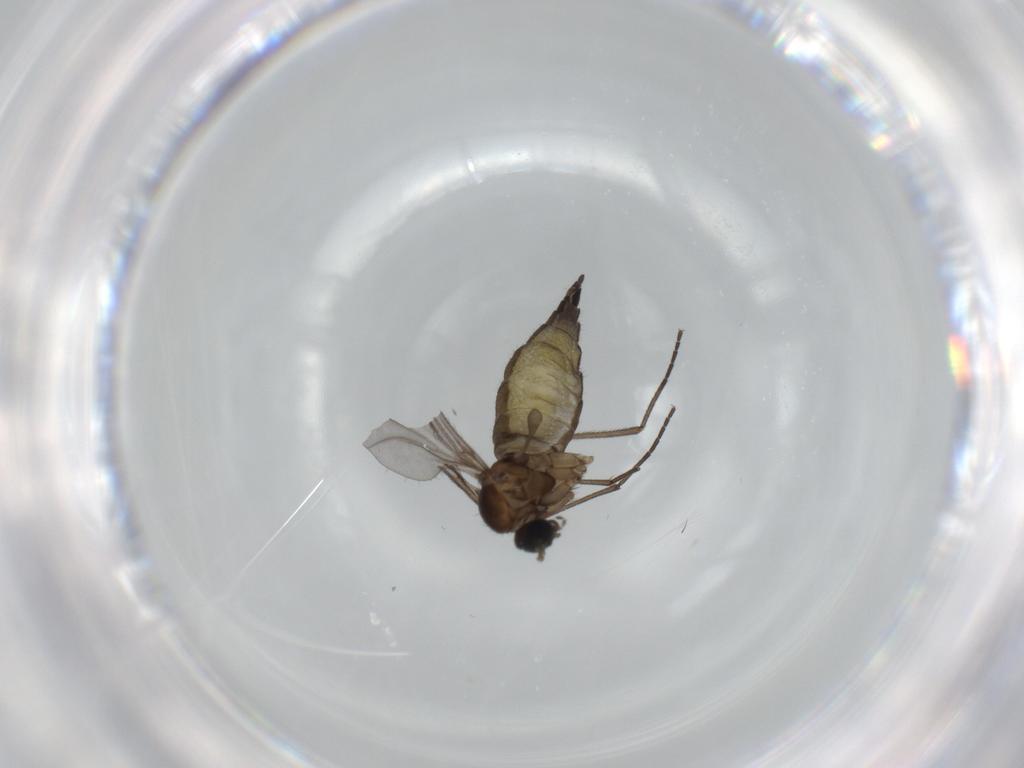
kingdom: Animalia
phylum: Arthropoda
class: Insecta
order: Diptera
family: Sciaridae
